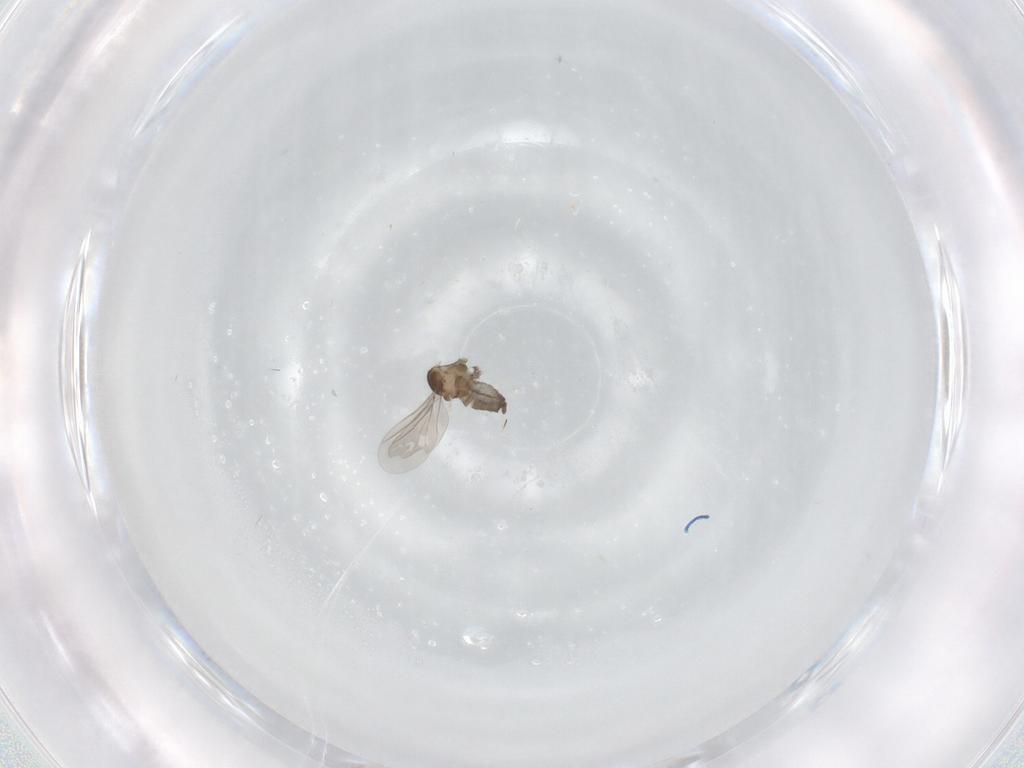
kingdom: Animalia
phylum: Arthropoda
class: Insecta
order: Diptera
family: Cecidomyiidae
